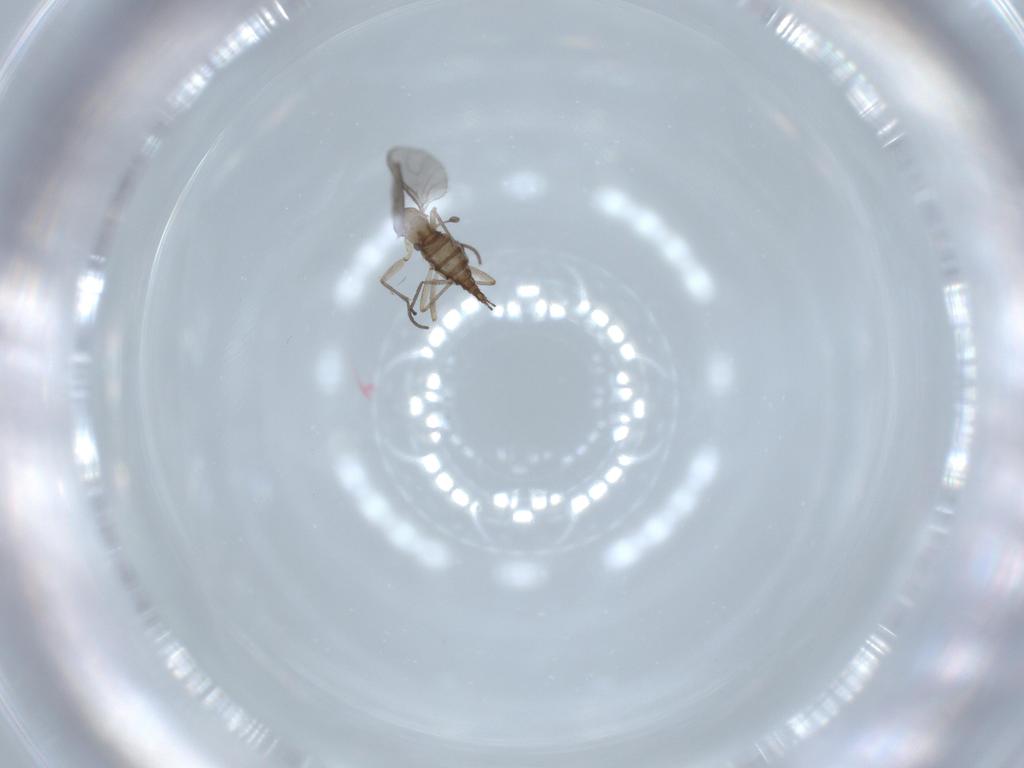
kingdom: Animalia
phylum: Arthropoda
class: Insecta
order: Diptera
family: Sciaridae
